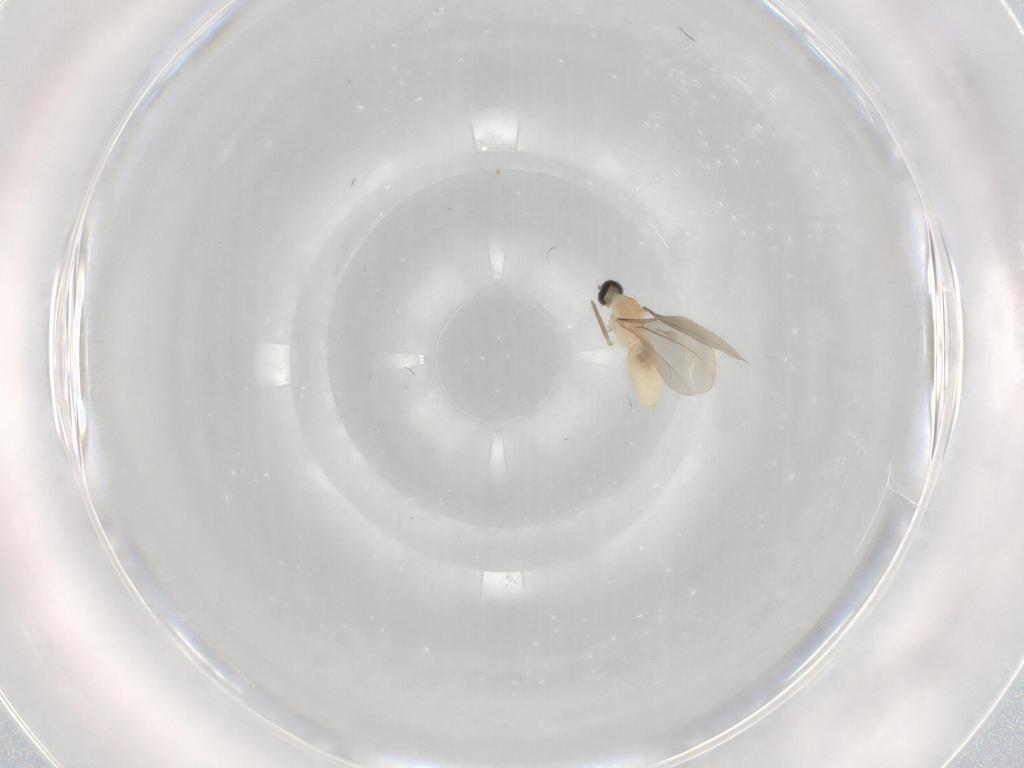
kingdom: Animalia
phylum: Arthropoda
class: Insecta
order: Diptera
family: Cecidomyiidae
